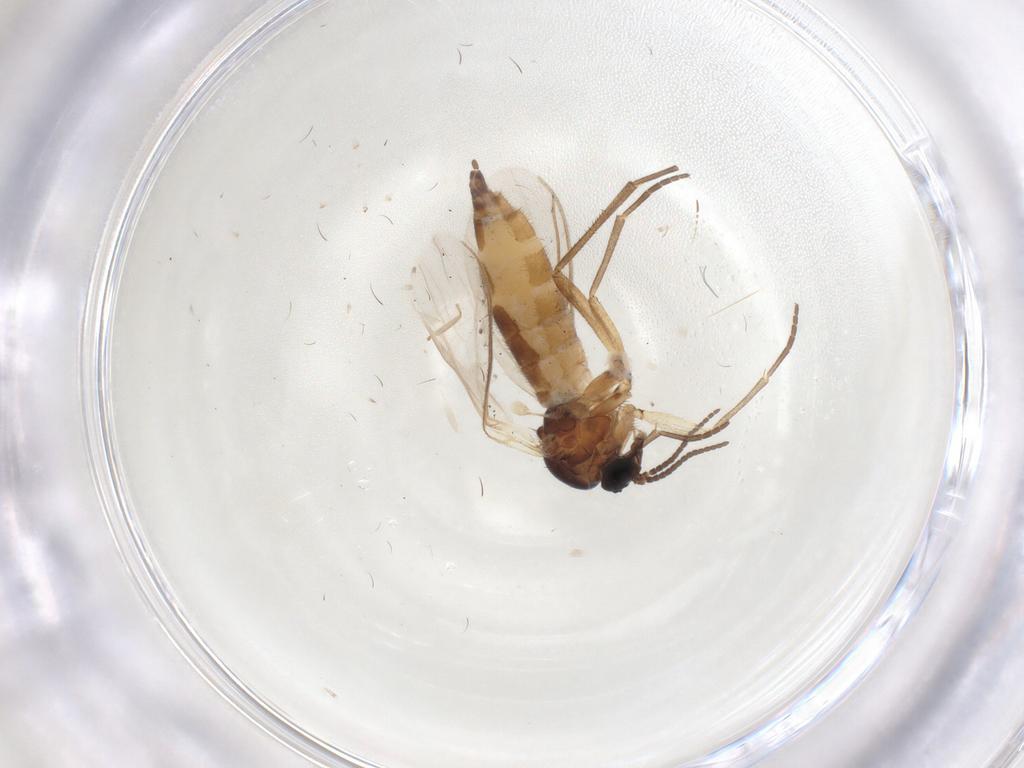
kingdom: Animalia
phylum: Arthropoda
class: Insecta
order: Diptera
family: Sciaridae
